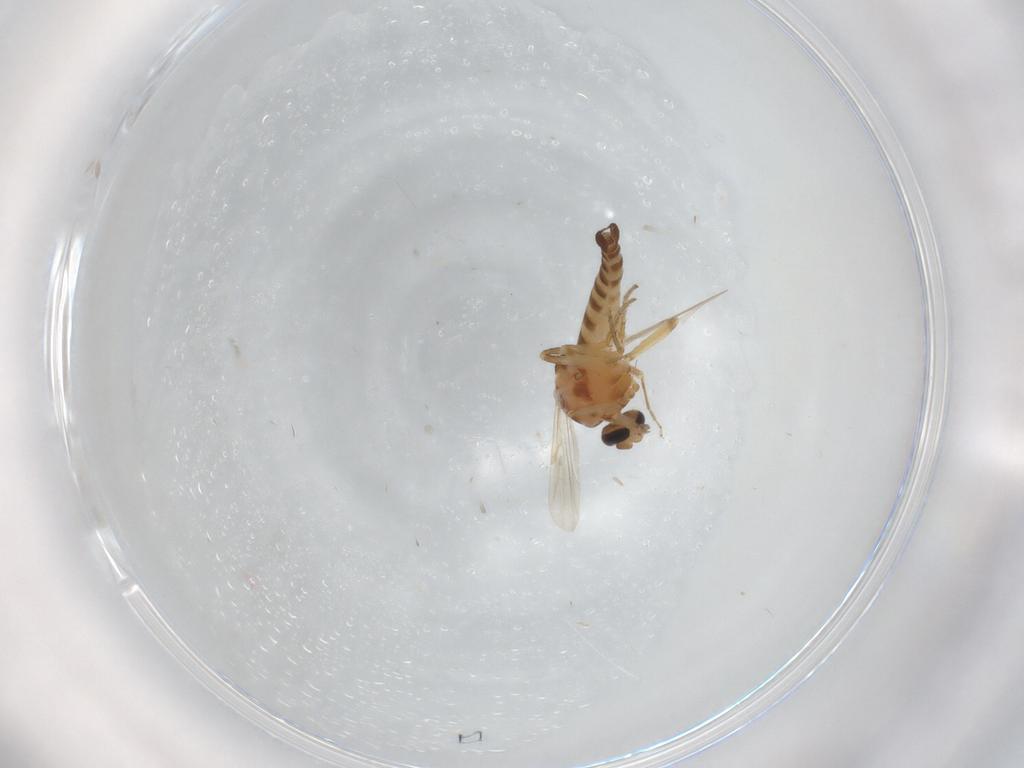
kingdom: Animalia
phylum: Arthropoda
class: Insecta
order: Diptera
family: Ceratopogonidae
